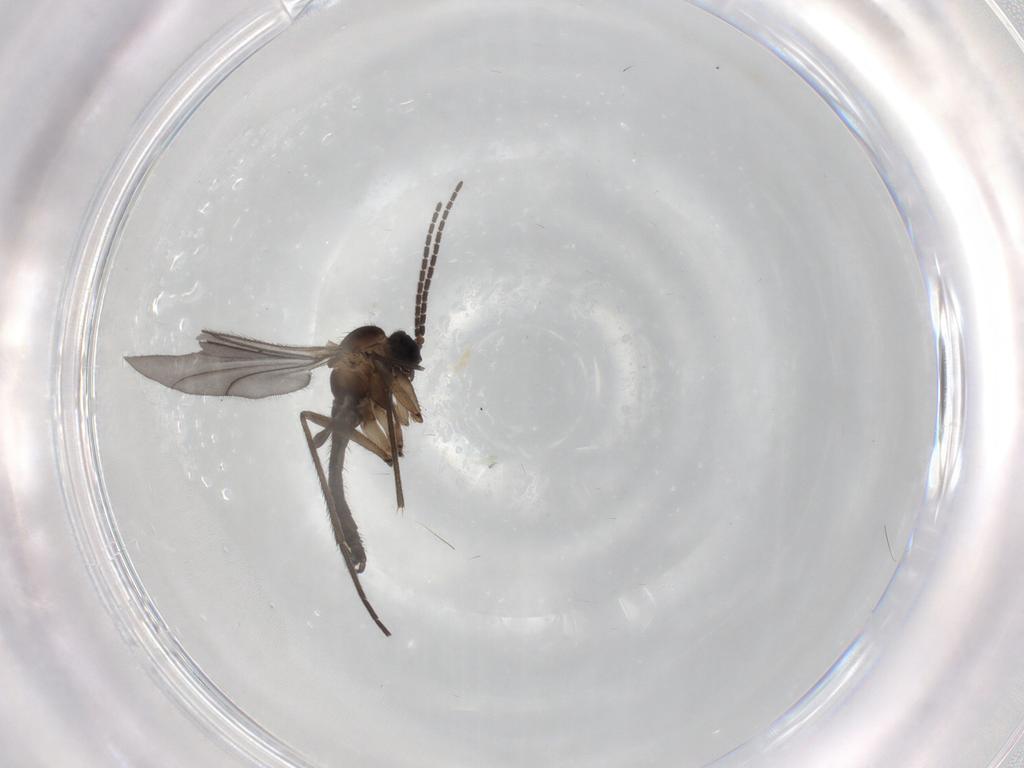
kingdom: Animalia
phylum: Arthropoda
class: Insecta
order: Diptera
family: Sciaridae
